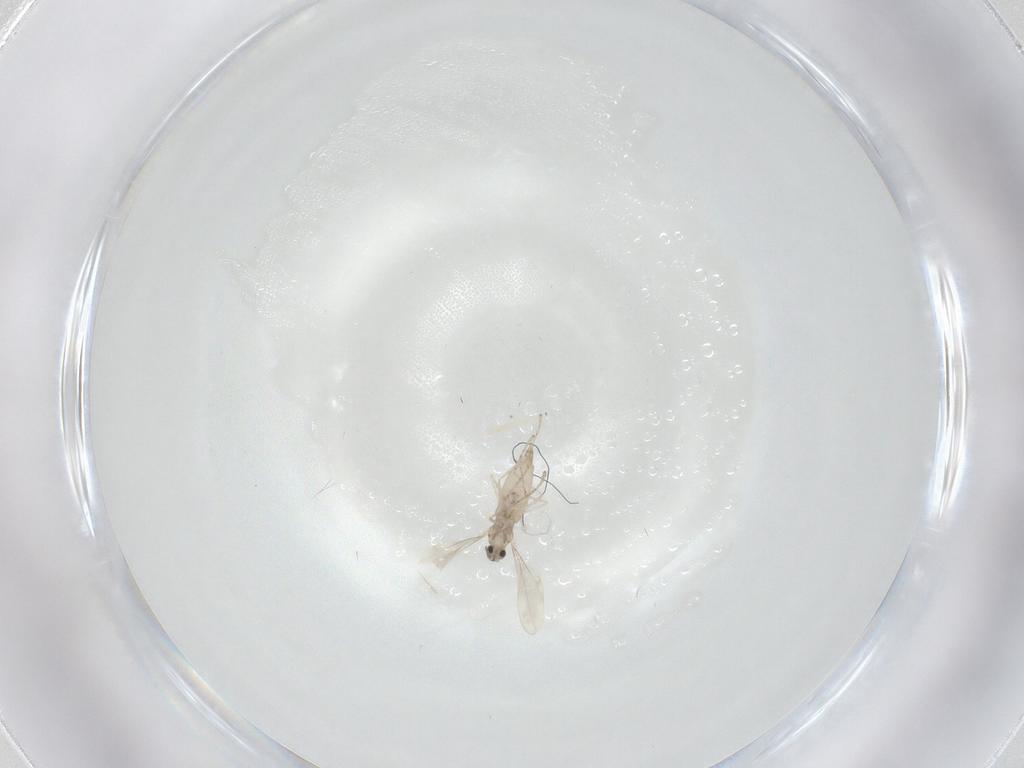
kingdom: Animalia
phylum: Arthropoda
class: Insecta
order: Diptera
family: Cecidomyiidae
